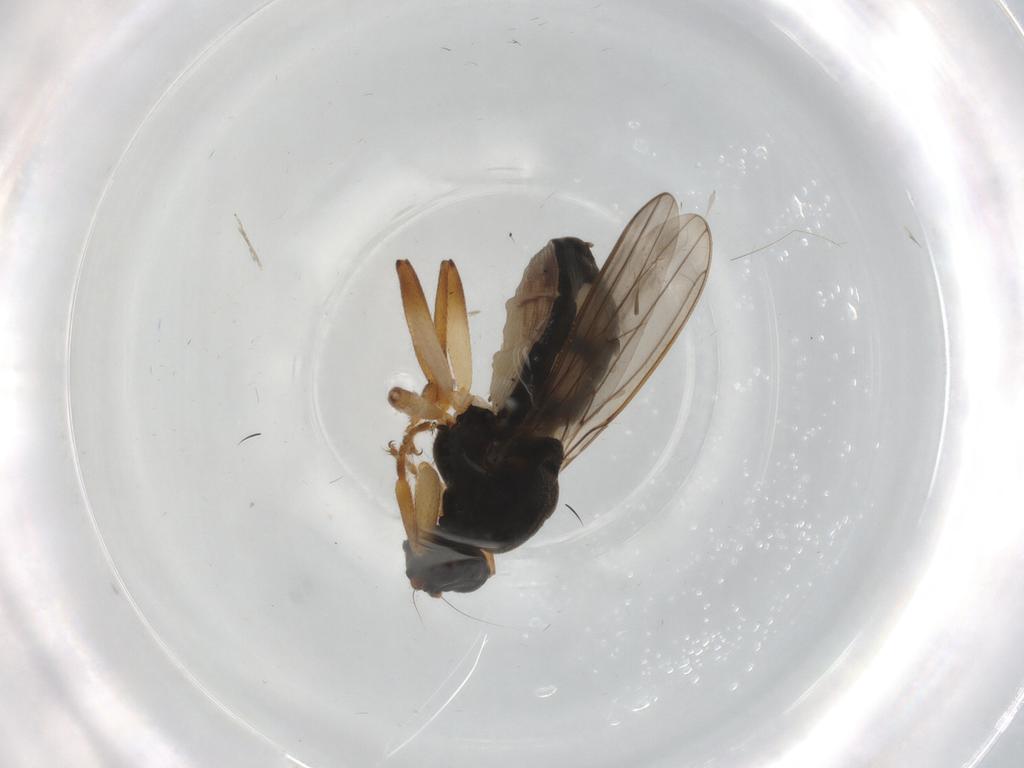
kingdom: Animalia
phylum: Arthropoda
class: Insecta
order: Diptera
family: Sphaeroceridae
